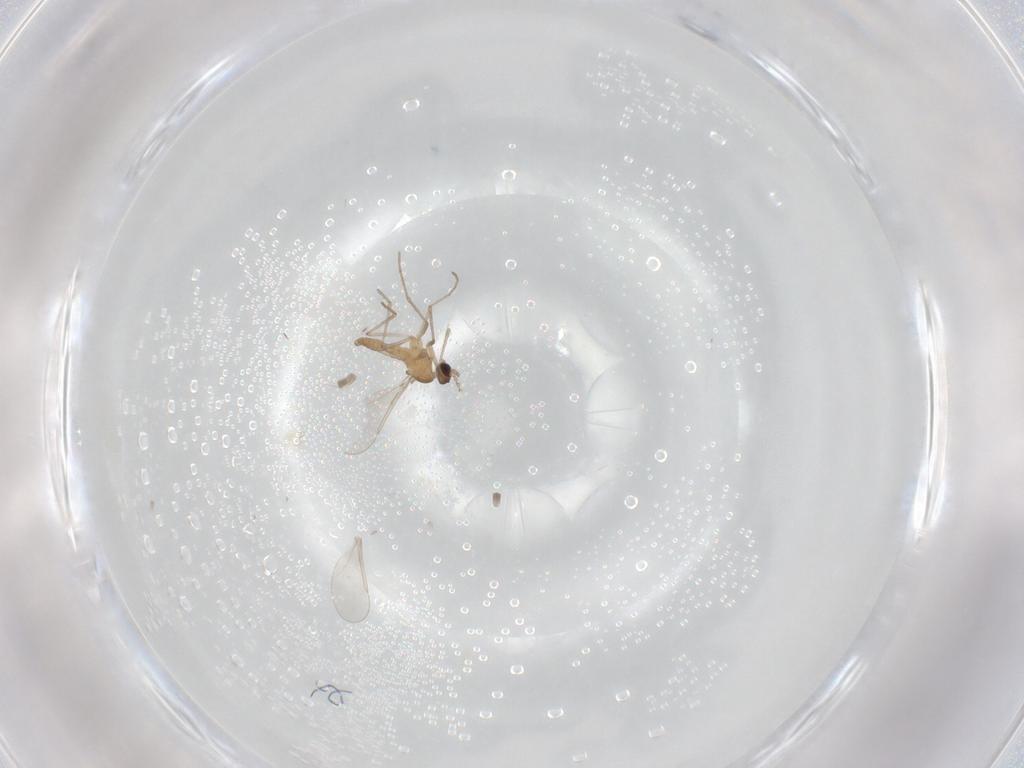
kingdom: Animalia
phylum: Arthropoda
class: Insecta
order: Diptera
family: Cecidomyiidae
